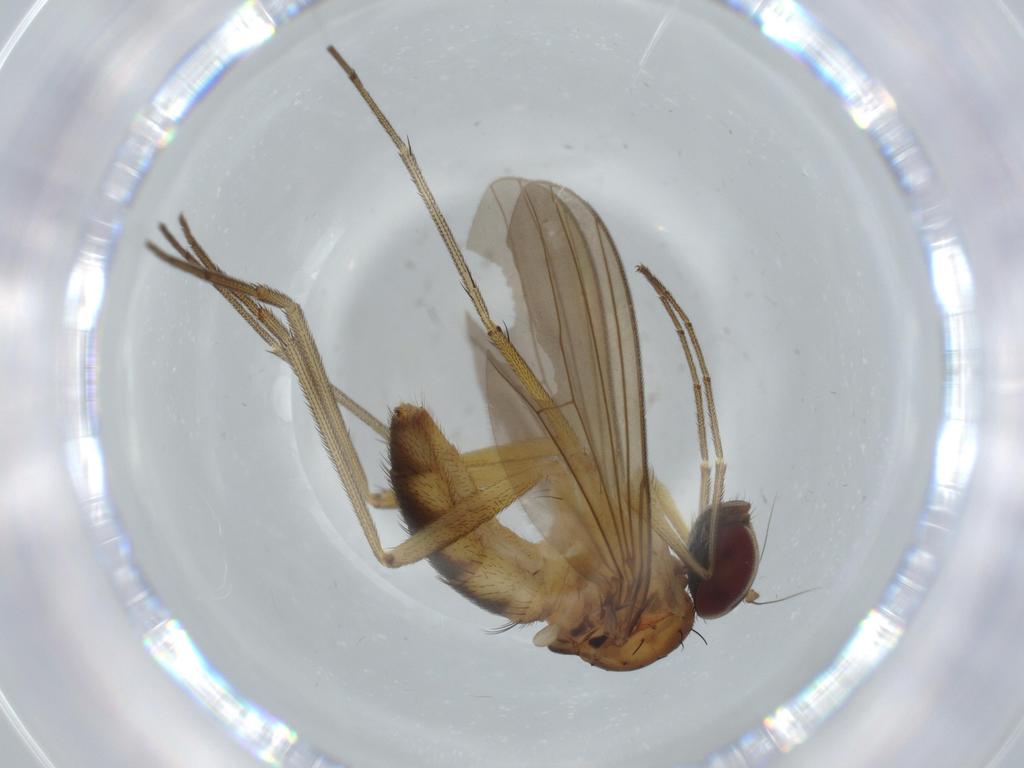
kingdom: Animalia
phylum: Arthropoda
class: Insecta
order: Diptera
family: Dolichopodidae
